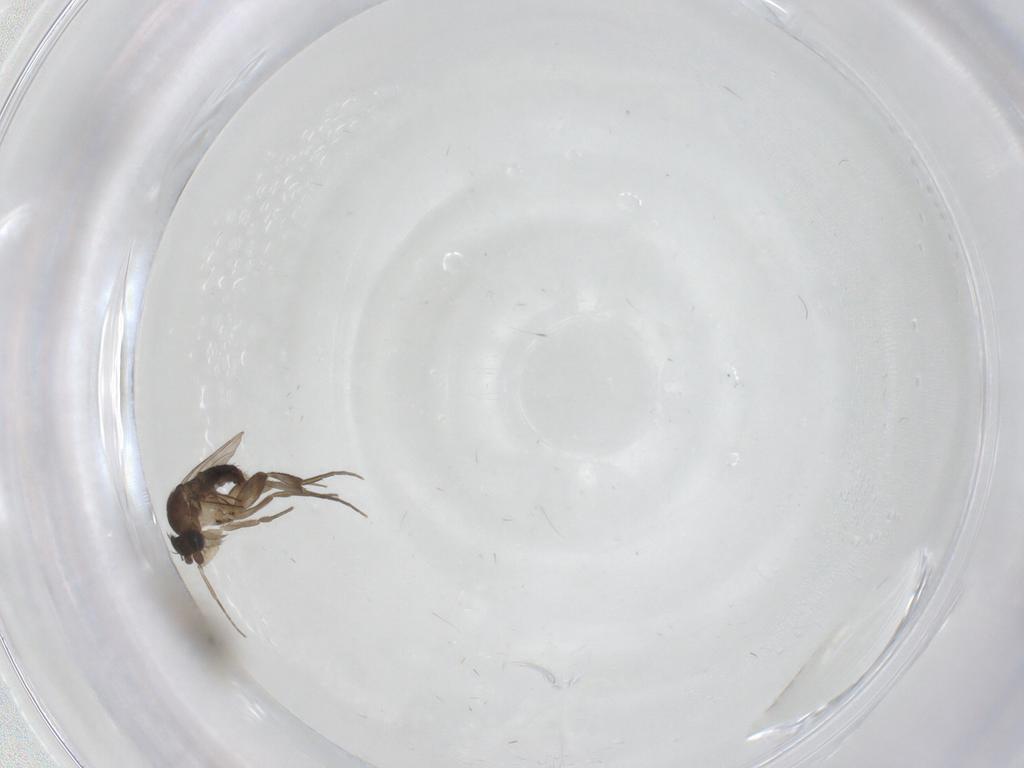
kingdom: Animalia
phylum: Arthropoda
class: Insecta
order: Diptera
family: Phoridae
